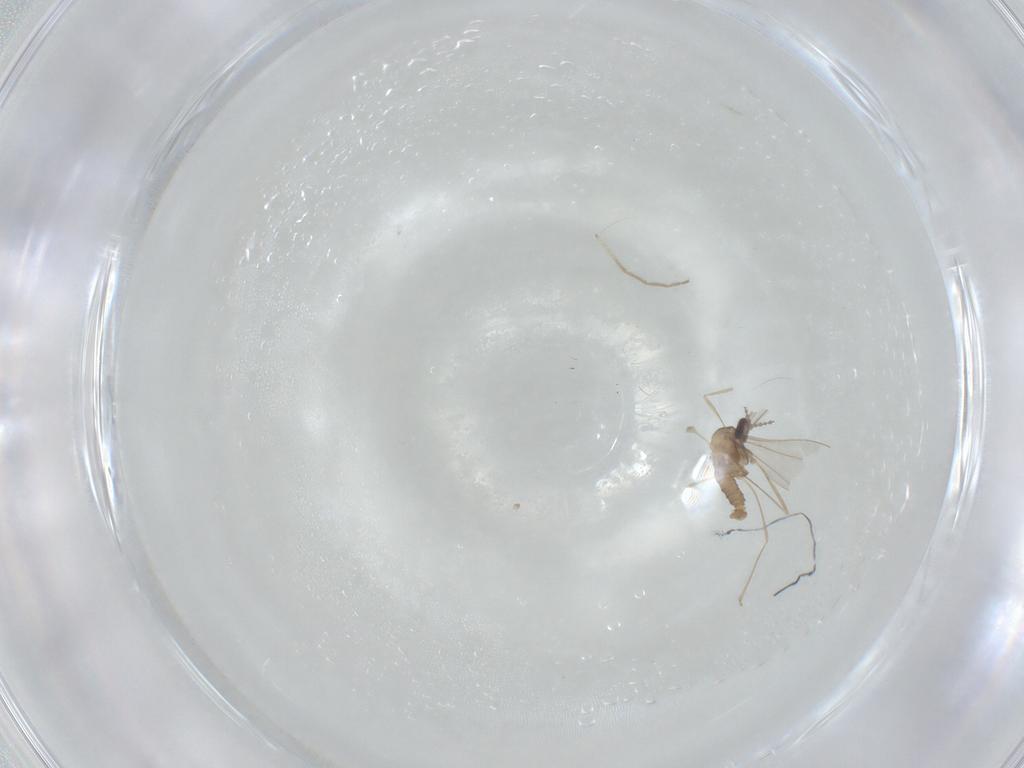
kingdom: Animalia
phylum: Arthropoda
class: Insecta
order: Diptera
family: Cecidomyiidae
